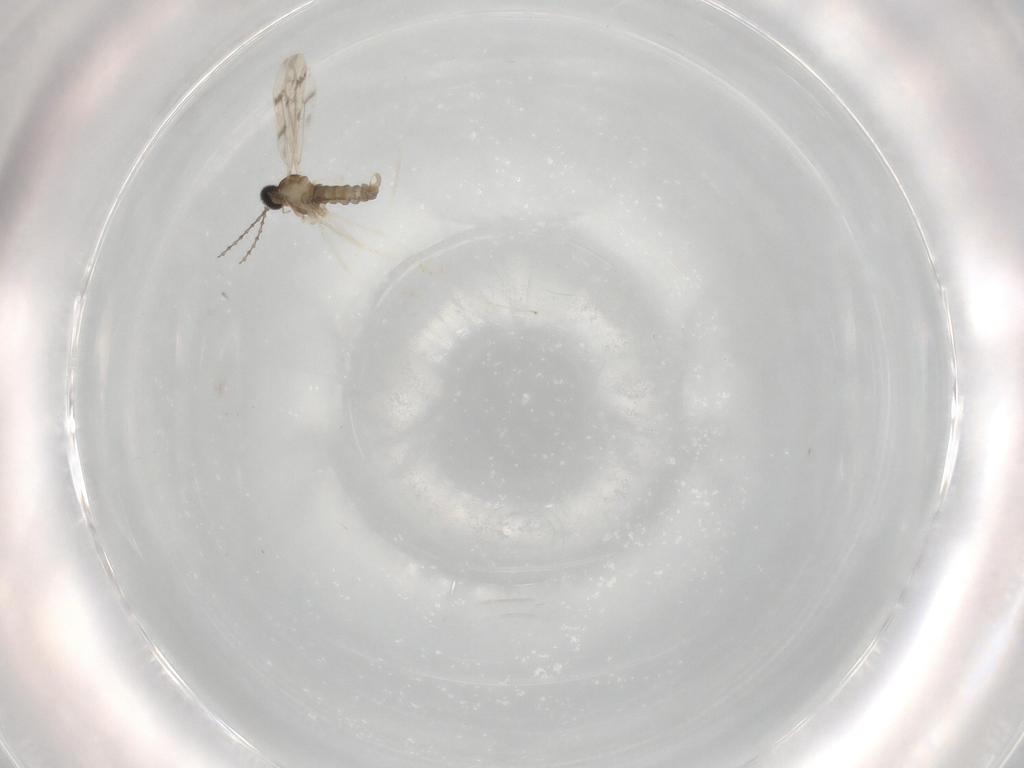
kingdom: Animalia
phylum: Arthropoda
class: Insecta
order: Diptera
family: Cecidomyiidae
